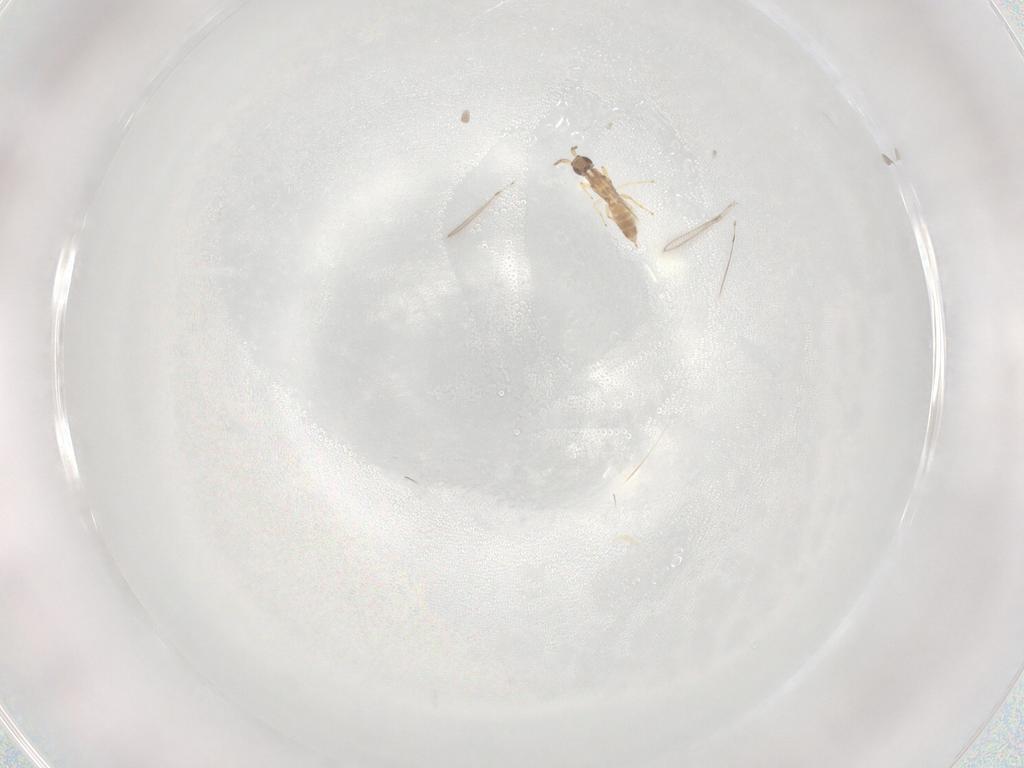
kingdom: Animalia
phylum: Arthropoda
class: Insecta
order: Hymenoptera
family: Mymaridae
